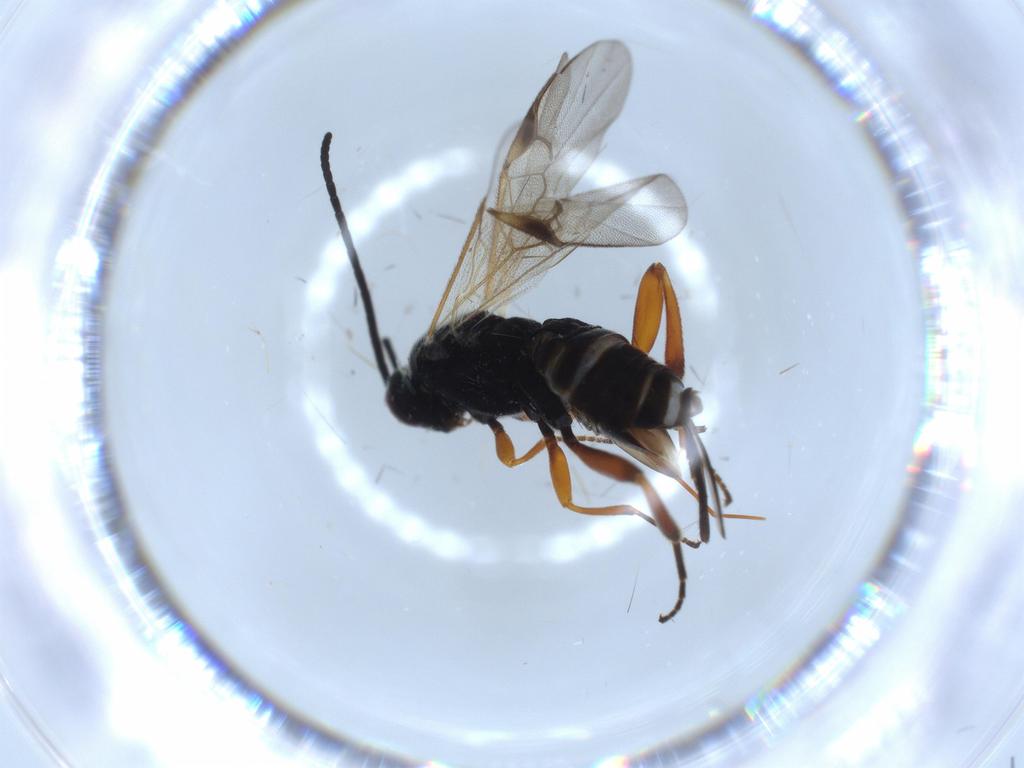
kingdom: Animalia
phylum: Arthropoda
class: Insecta
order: Hymenoptera
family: Braconidae
